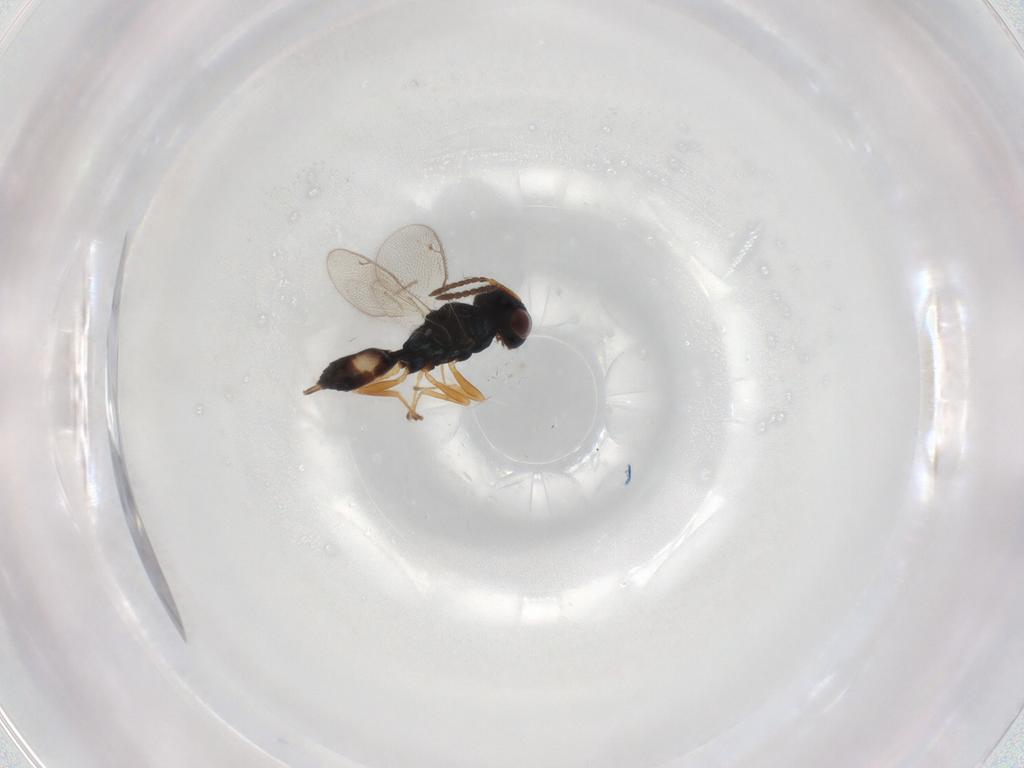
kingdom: Animalia
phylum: Arthropoda
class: Insecta
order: Hymenoptera
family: Pteromalidae
